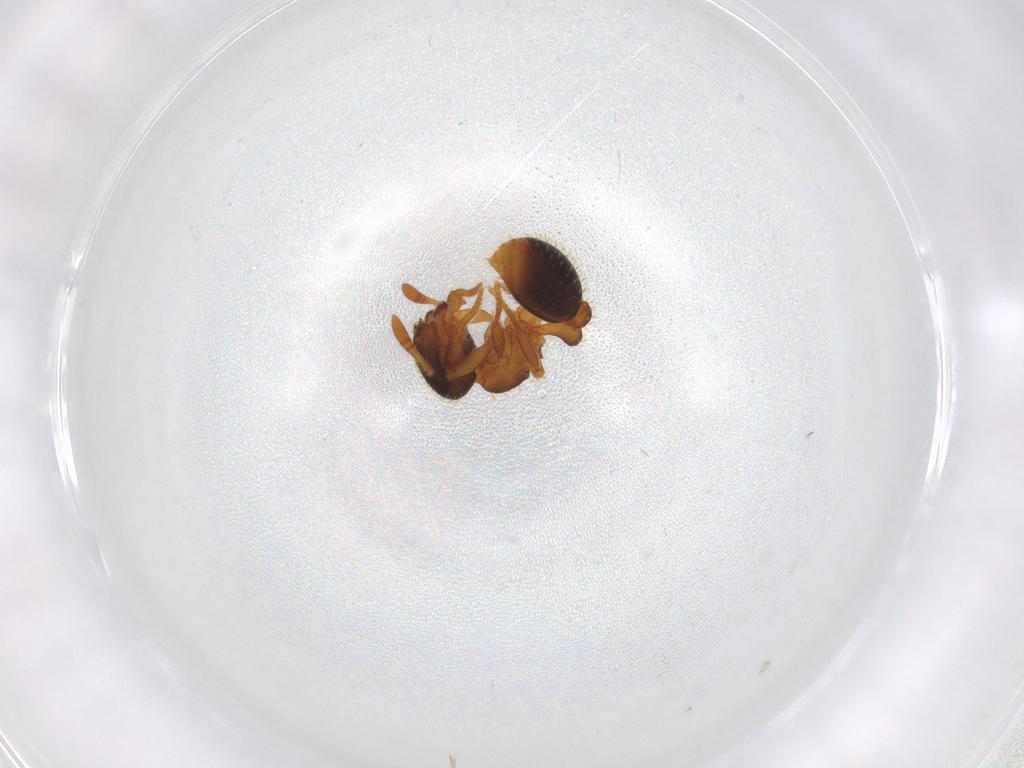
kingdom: Animalia
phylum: Arthropoda
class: Insecta
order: Hymenoptera
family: Formicidae
